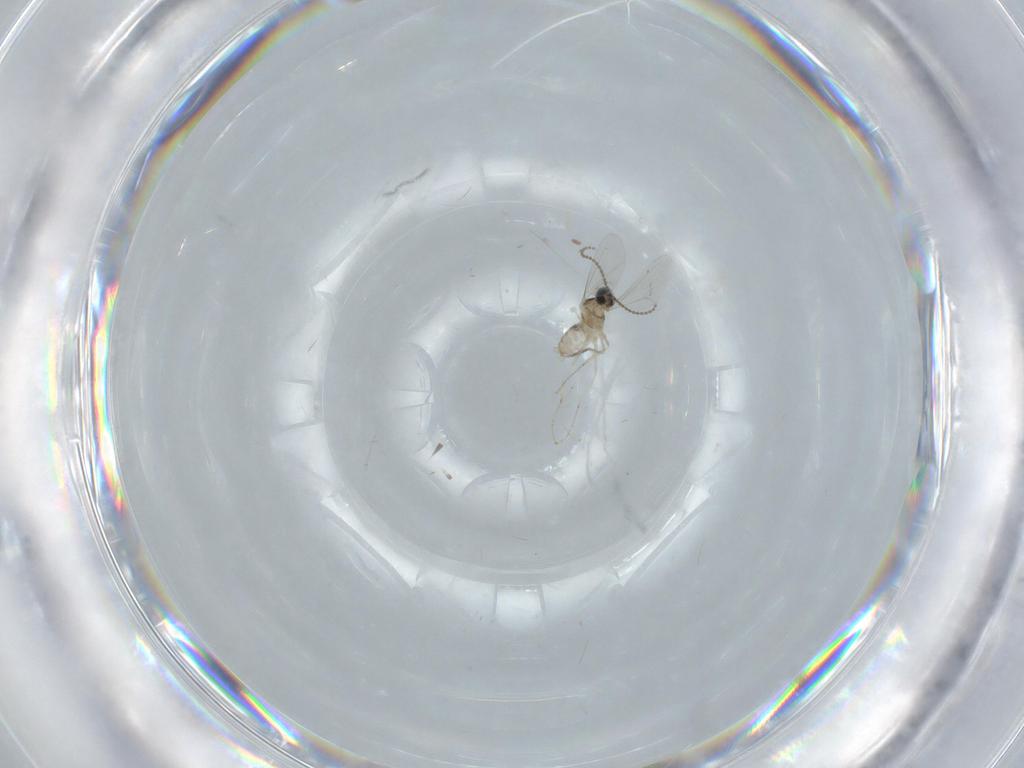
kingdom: Animalia
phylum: Arthropoda
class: Insecta
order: Diptera
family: Cecidomyiidae
